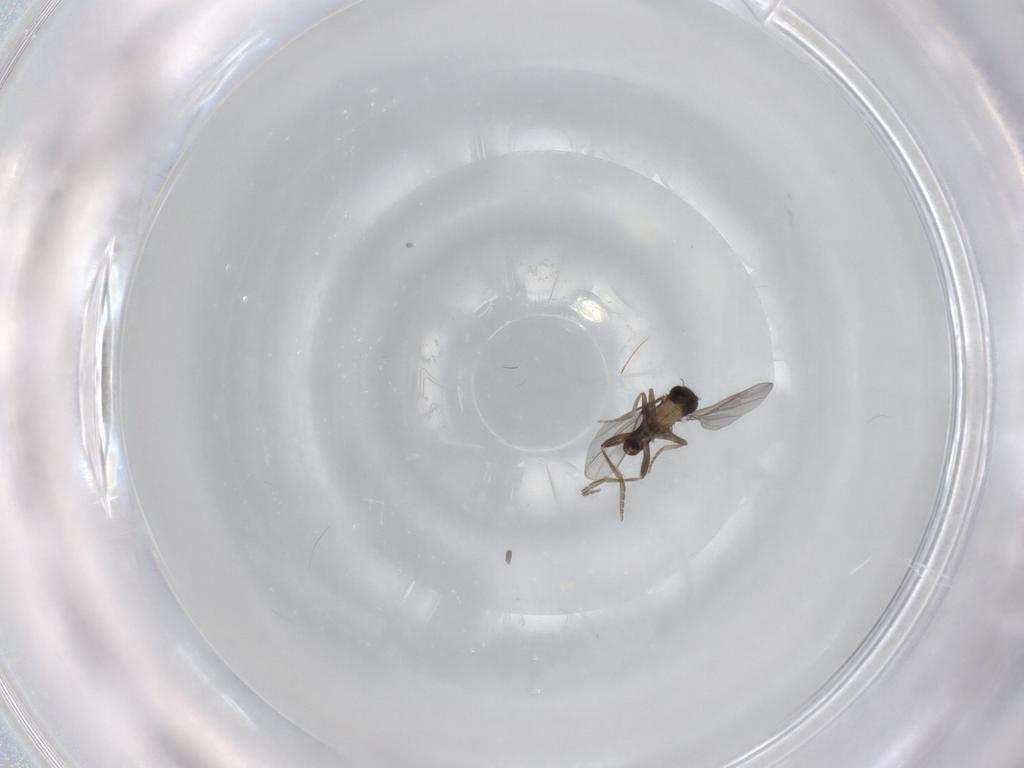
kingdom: Animalia
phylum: Arthropoda
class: Insecta
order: Diptera
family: Phoridae
